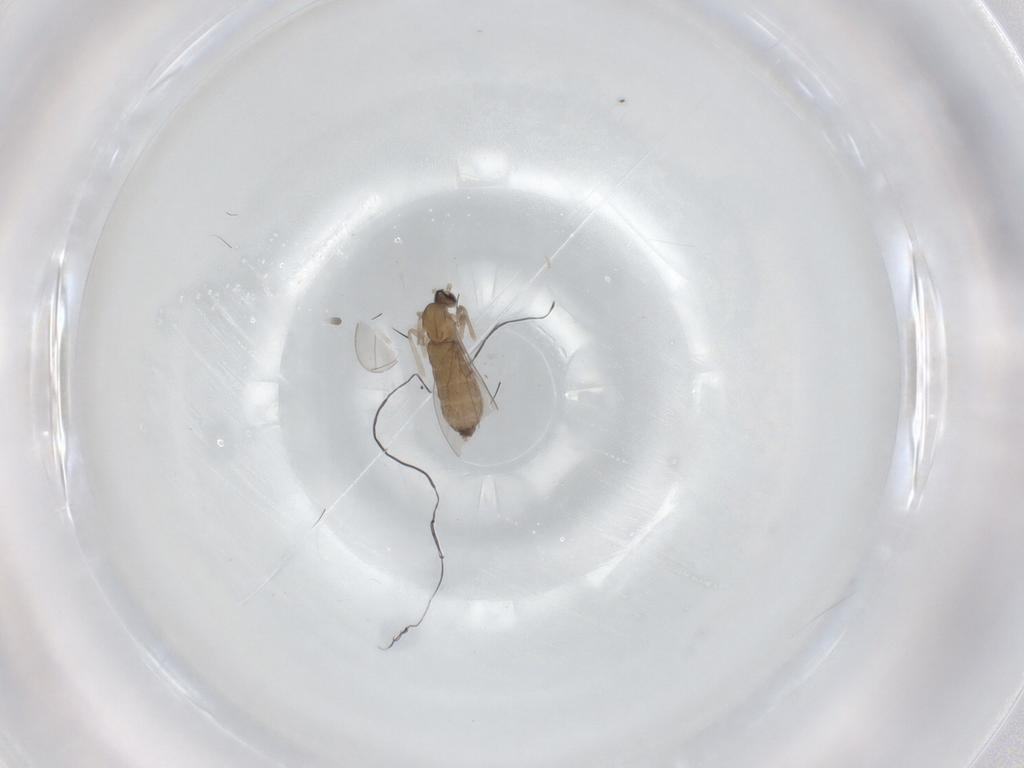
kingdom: Animalia
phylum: Arthropoda
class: Insecta
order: Diptera
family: Cecidomyiidae
